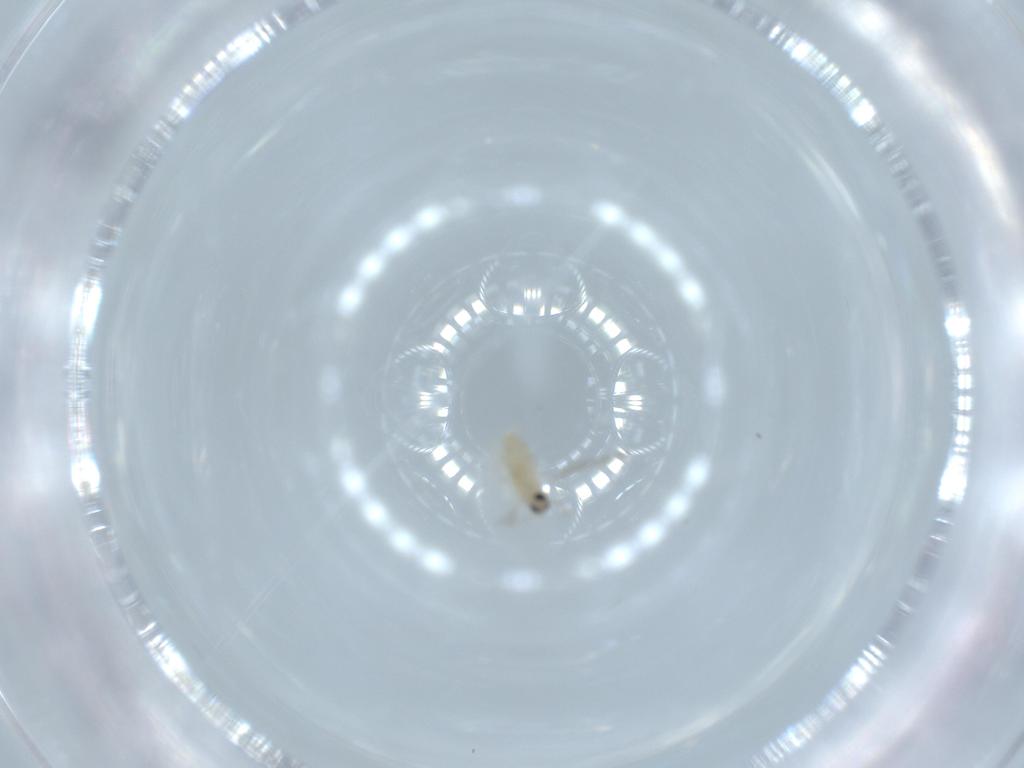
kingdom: Animalia
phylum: Arthropoda
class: Insecta
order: Diptera
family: Cecidomyiidae
